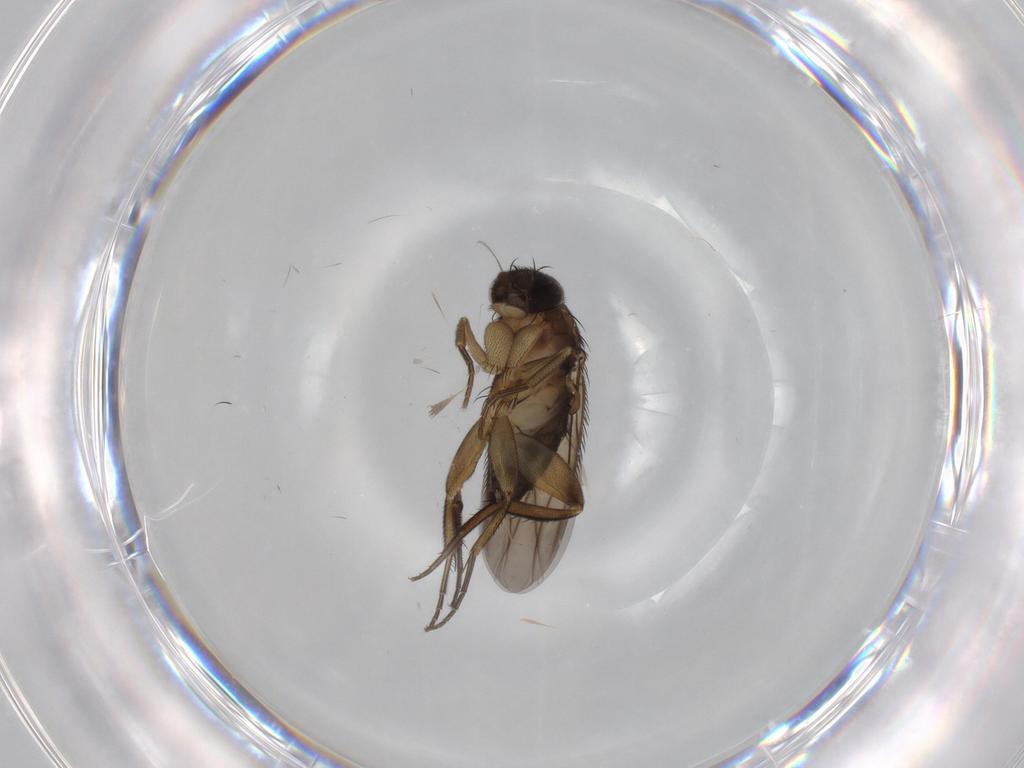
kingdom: Animalia
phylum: Arthropoda
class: Insecta
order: Diptera
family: Phoridae
